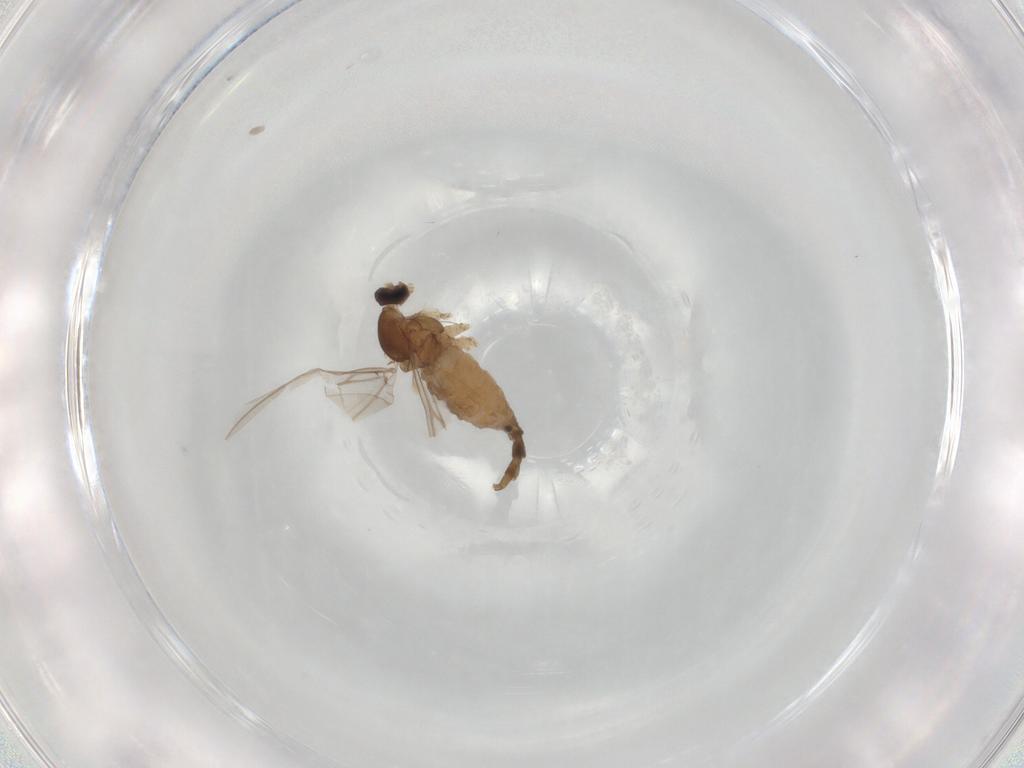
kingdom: Animalia
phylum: Arthropoda
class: Insecta
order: Diptera
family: Cecidomyiidae
